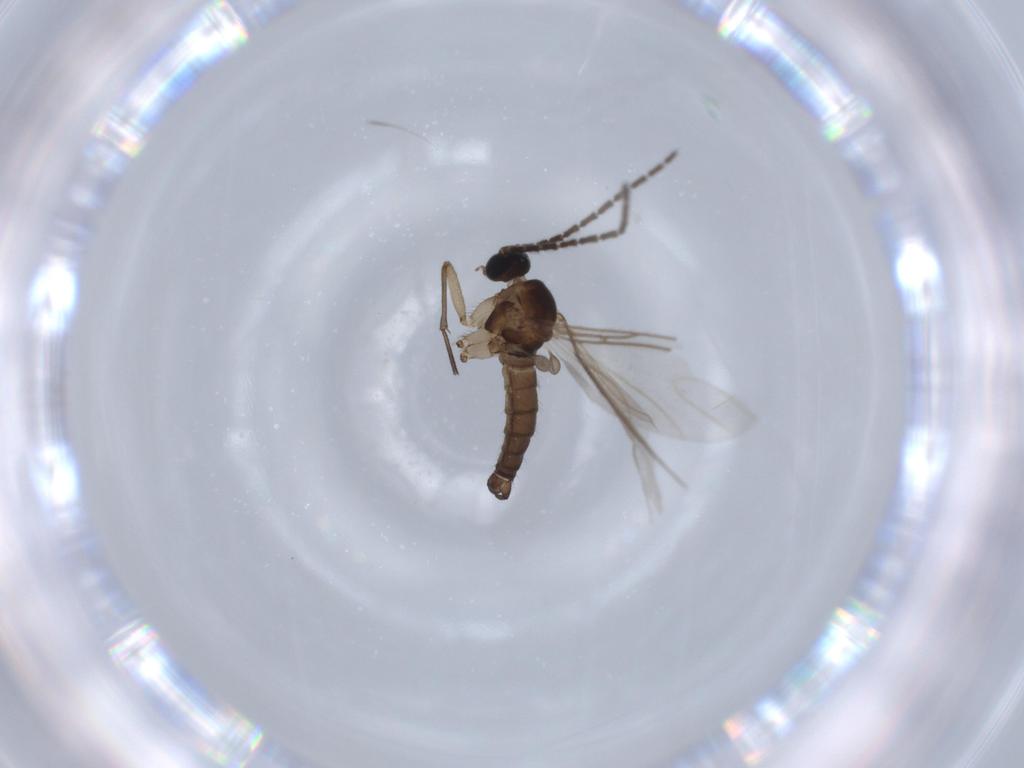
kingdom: Animalia
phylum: Arthropoda
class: Insecta
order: Diptera
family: Sciaridae
